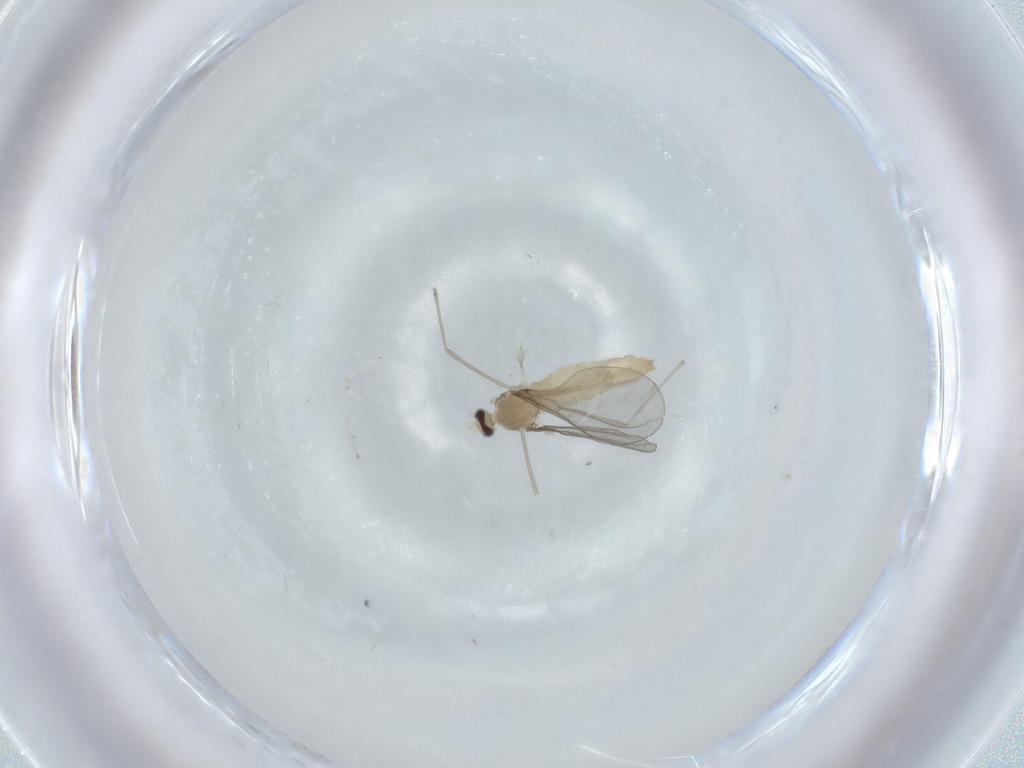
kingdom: Animalia
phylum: Arthropoda
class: Insecta
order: Diptera
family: Cecidomyiidae
